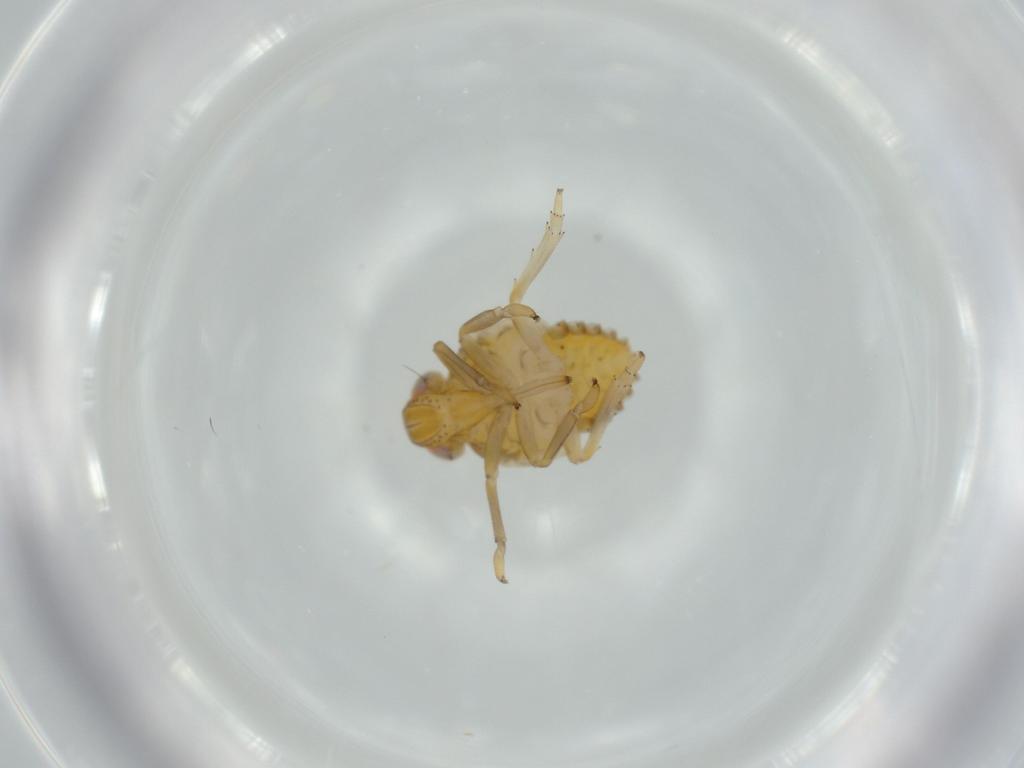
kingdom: Animalia
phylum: Arthropoda
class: Insecta
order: Hemiptera
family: Issidae
